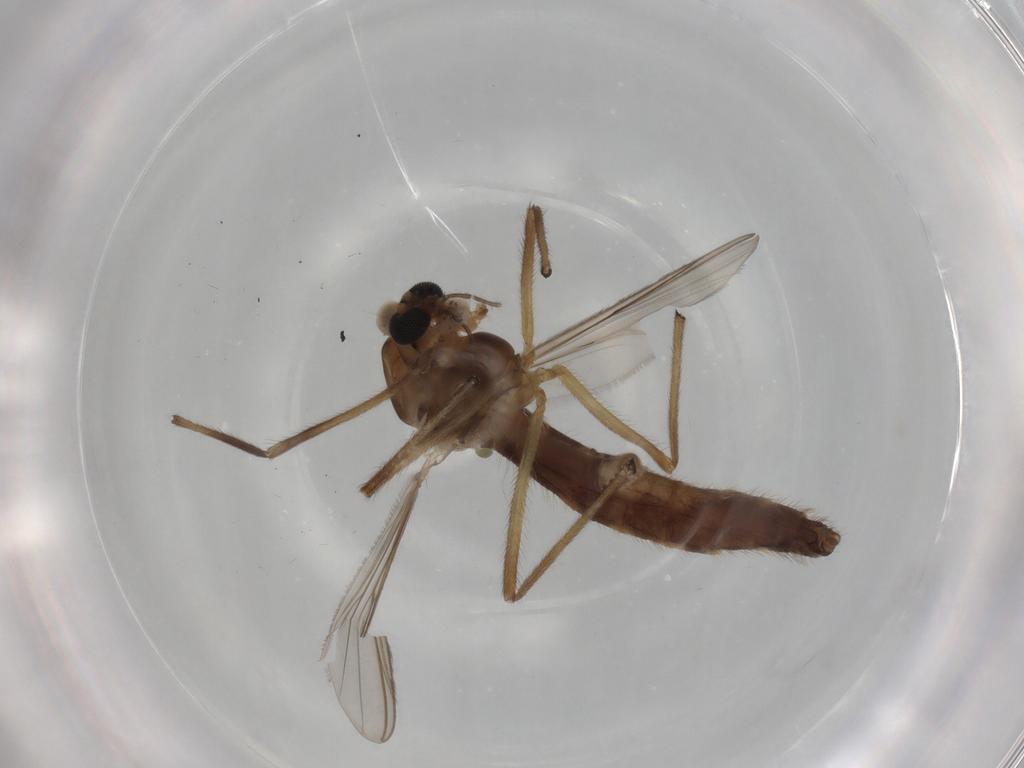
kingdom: Animalia
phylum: Arthropoda
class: Insecta
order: Diptera
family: Chironomidae
